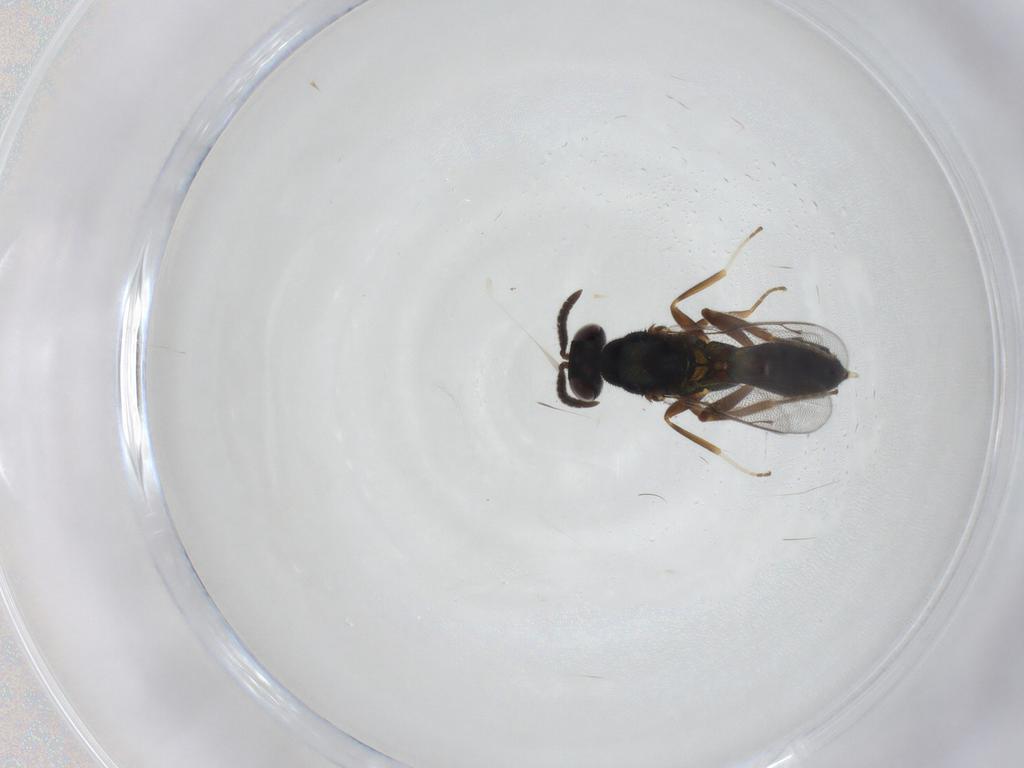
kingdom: Animalia
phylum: Arthropoda
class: Insecta
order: Hymenoptera
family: Cleonyminae
